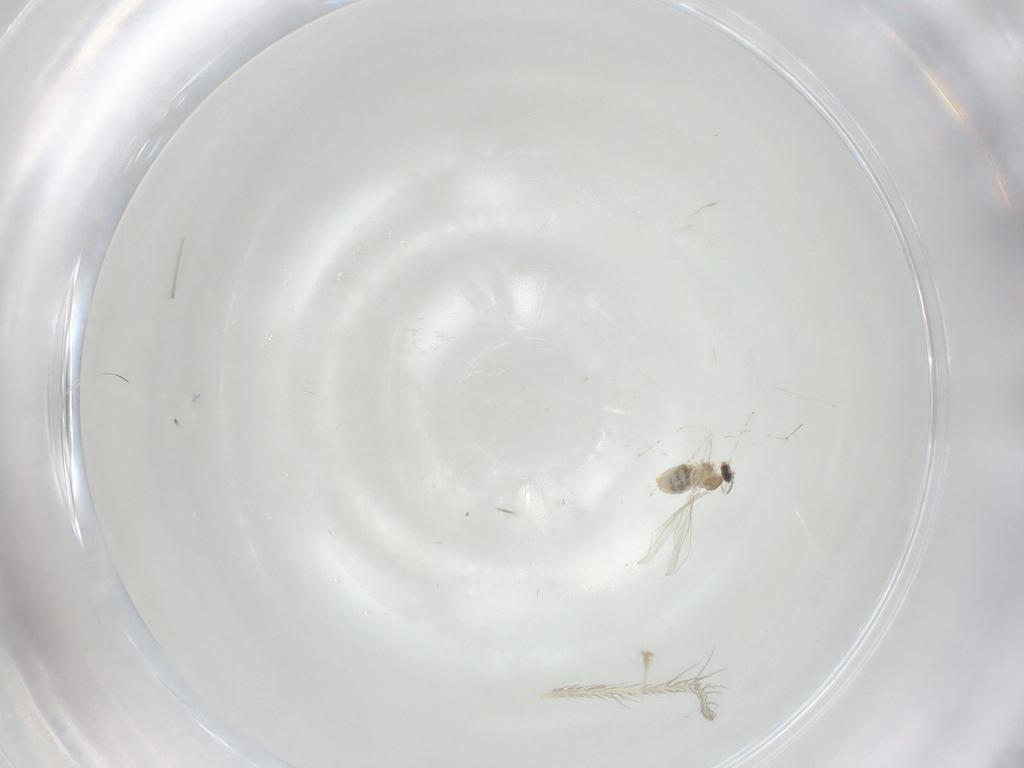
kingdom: Animalia
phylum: Arthropoda
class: Insecta
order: Diptera
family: Cecidomyiidae
